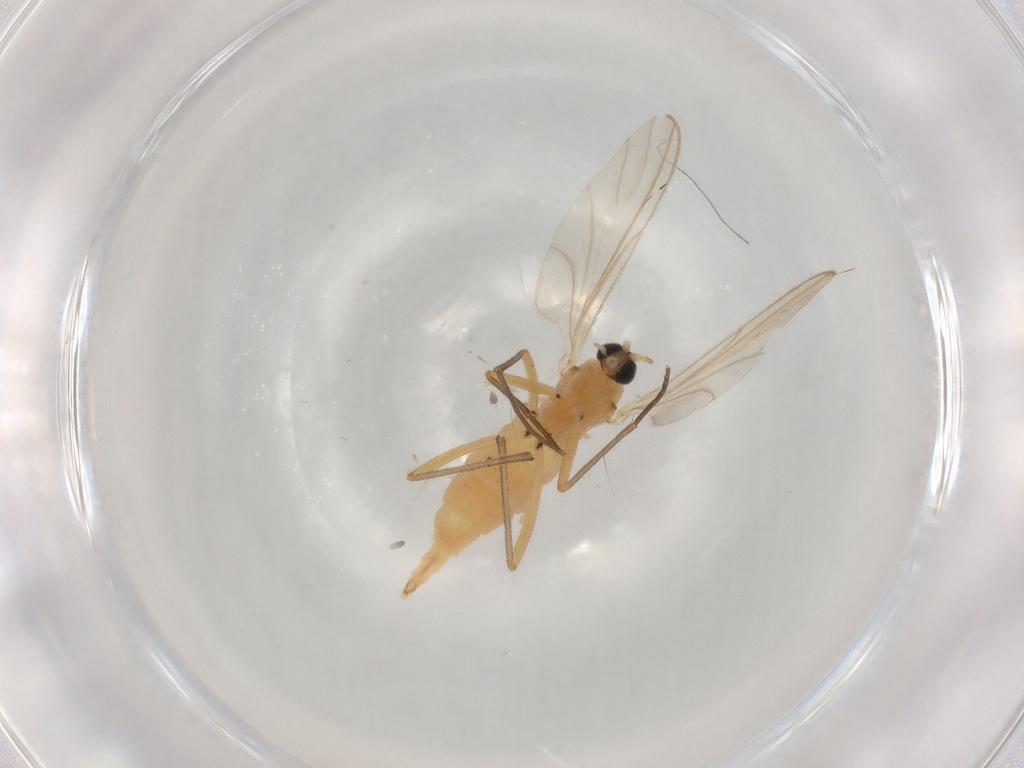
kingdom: Animalia
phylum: Arthropoda
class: Insecta
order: Diptera
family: Sciaridae
